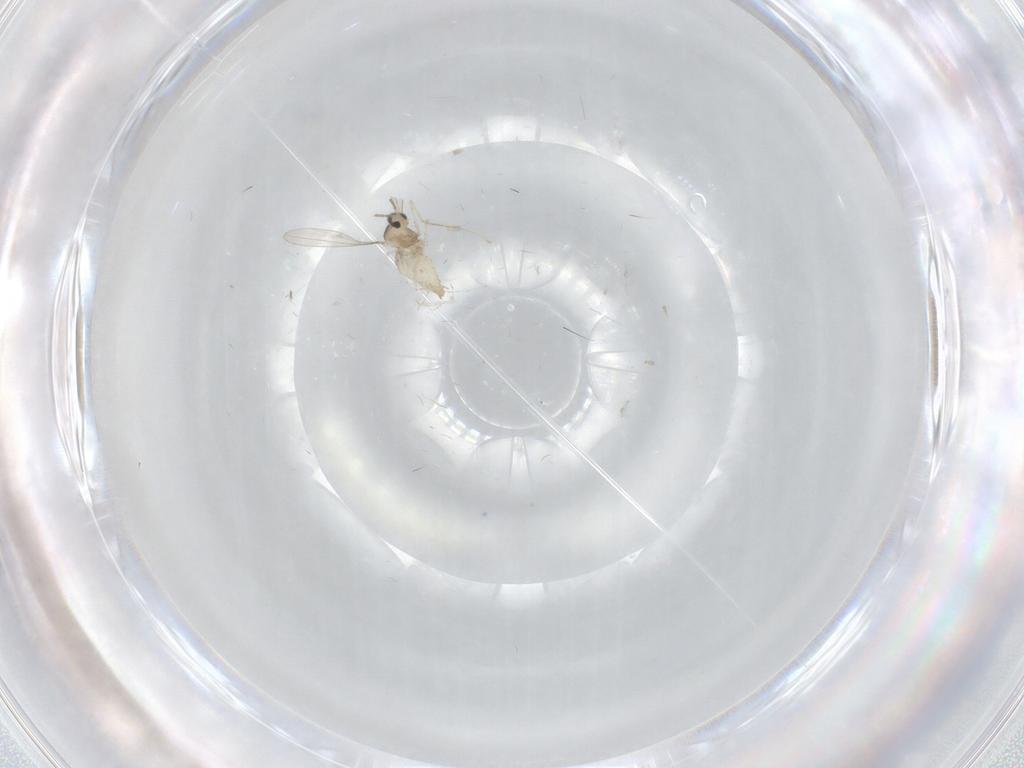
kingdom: Animalia
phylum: Arthropoda
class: Insecta
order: Diptera
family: Cecidomyiidae
